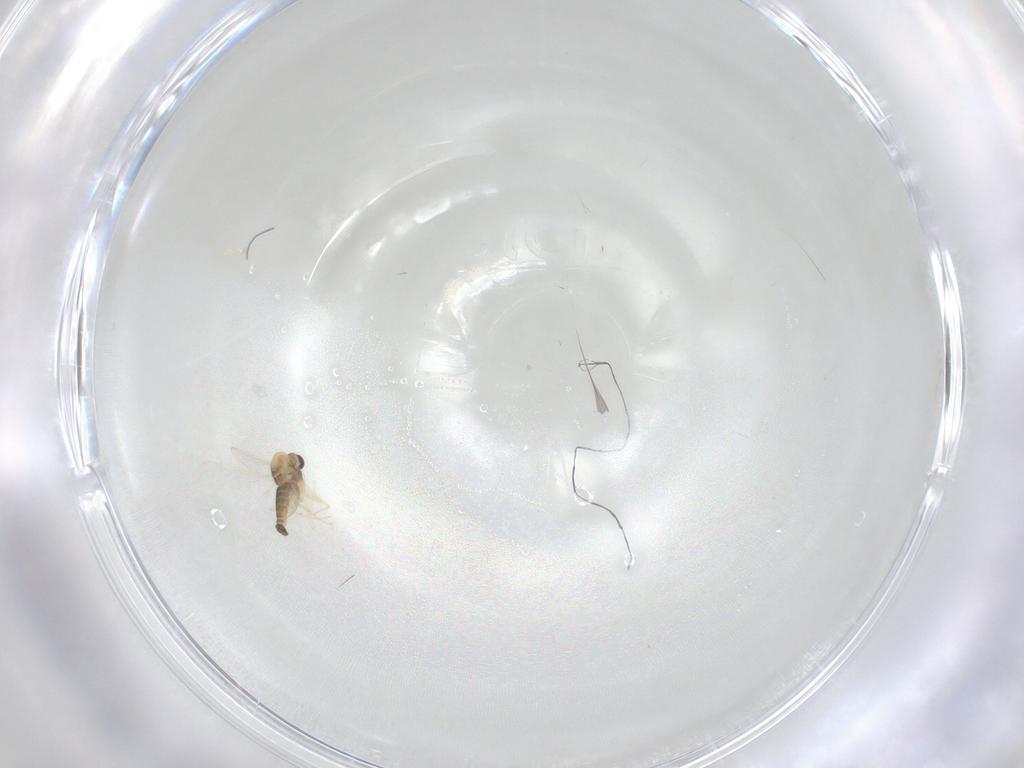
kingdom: Animalia
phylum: Arthropoda
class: Insecta
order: Diptera
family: Chironomidae
